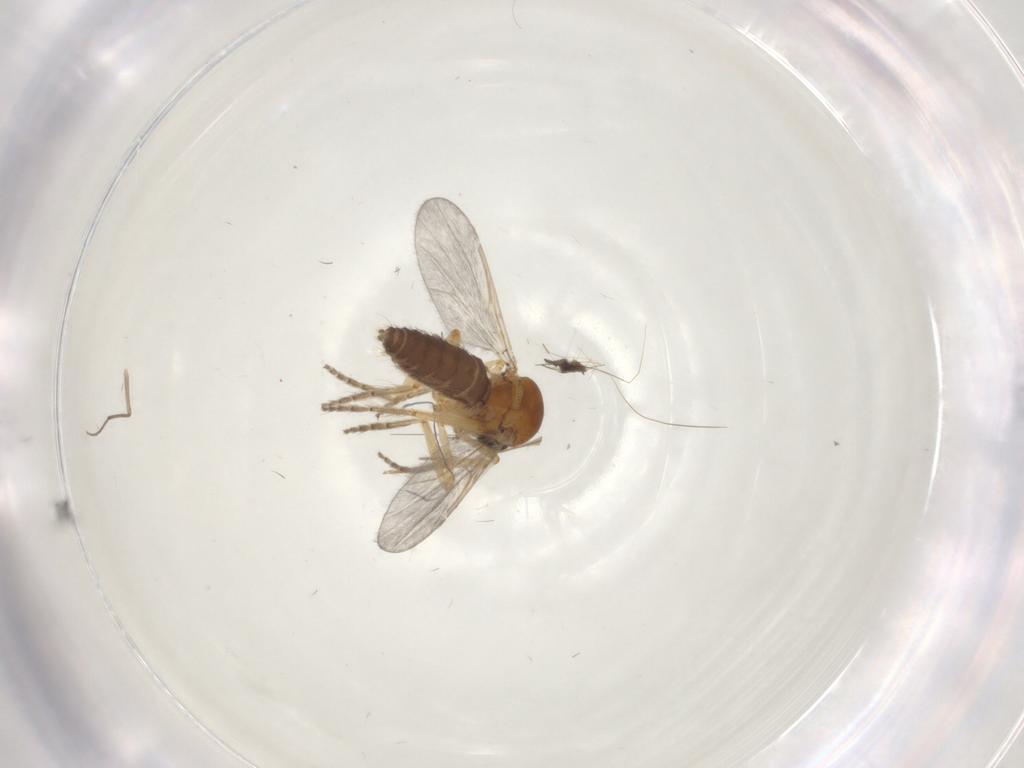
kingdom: Animalia
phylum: Arthropoda
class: Insecta
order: Diptera
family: Ceratopogonidae
